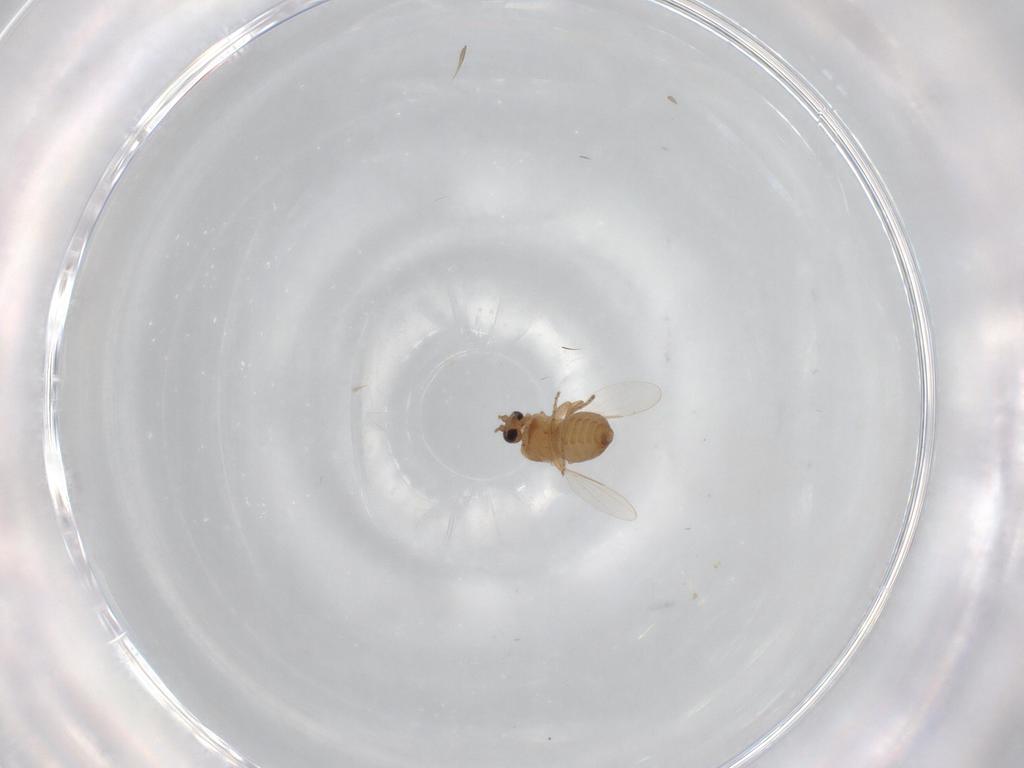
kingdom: Animalia
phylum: Arthropoda
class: Insecta
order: Diptera
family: Ceratopogonidae
